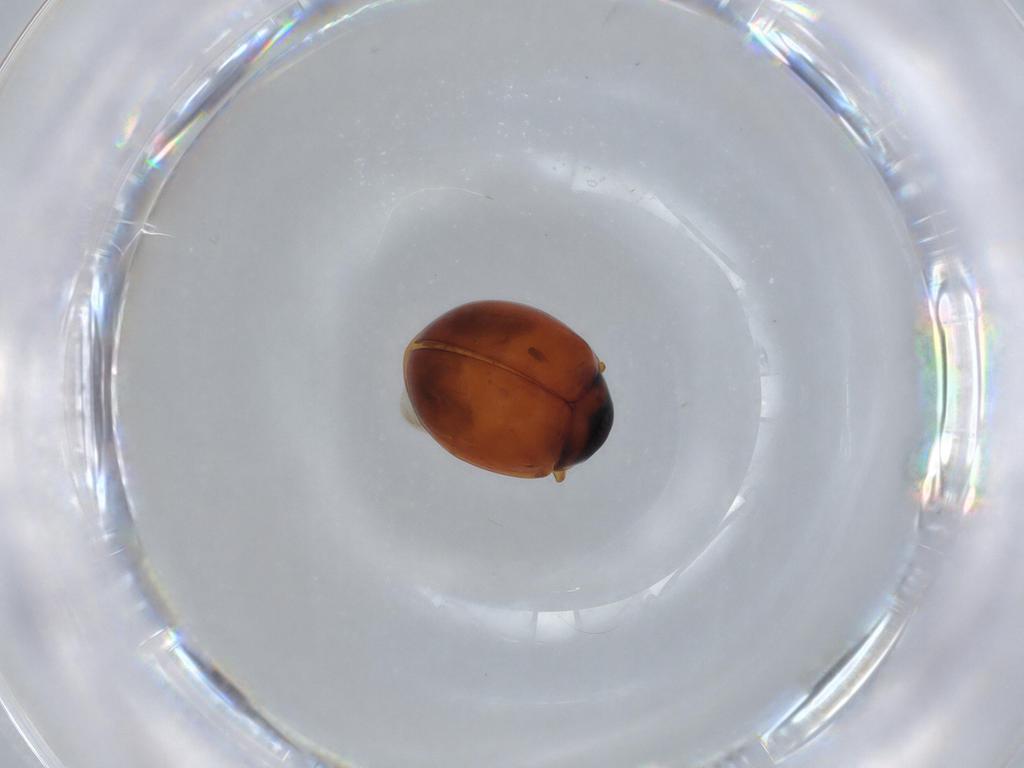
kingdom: Animalia
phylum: Arthropoda
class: Insecta
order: Coleoptera
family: Coccinellidae
